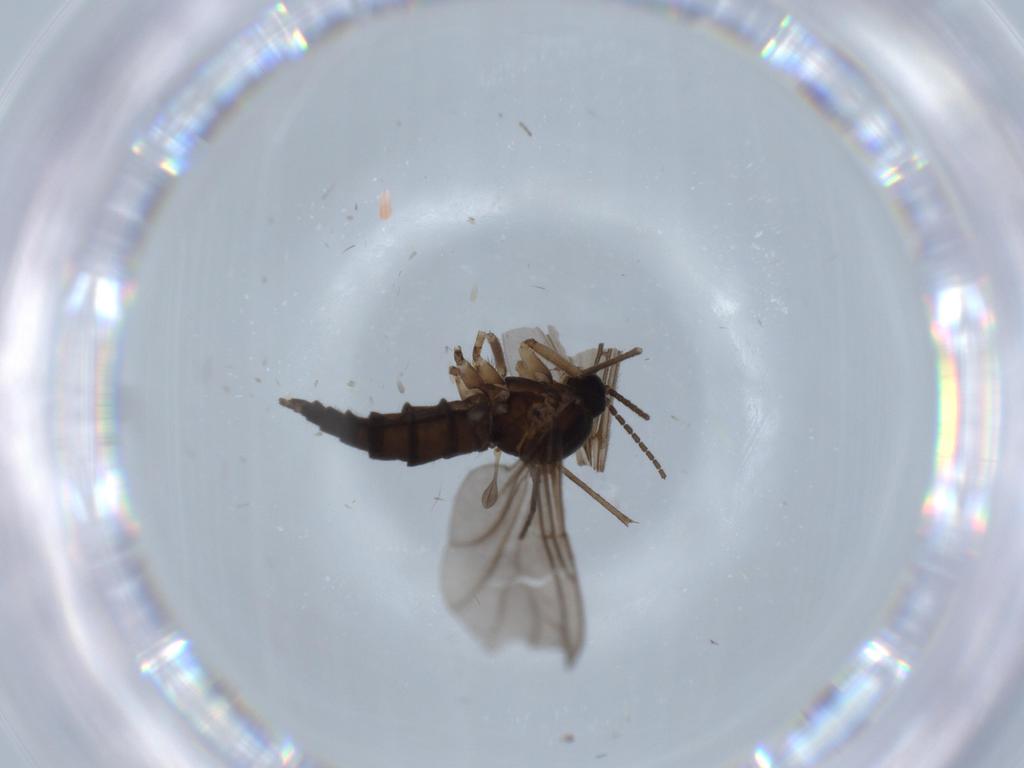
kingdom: Animalia
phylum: Arthropoda
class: Insecta
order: Diptera
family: Sciaridae
